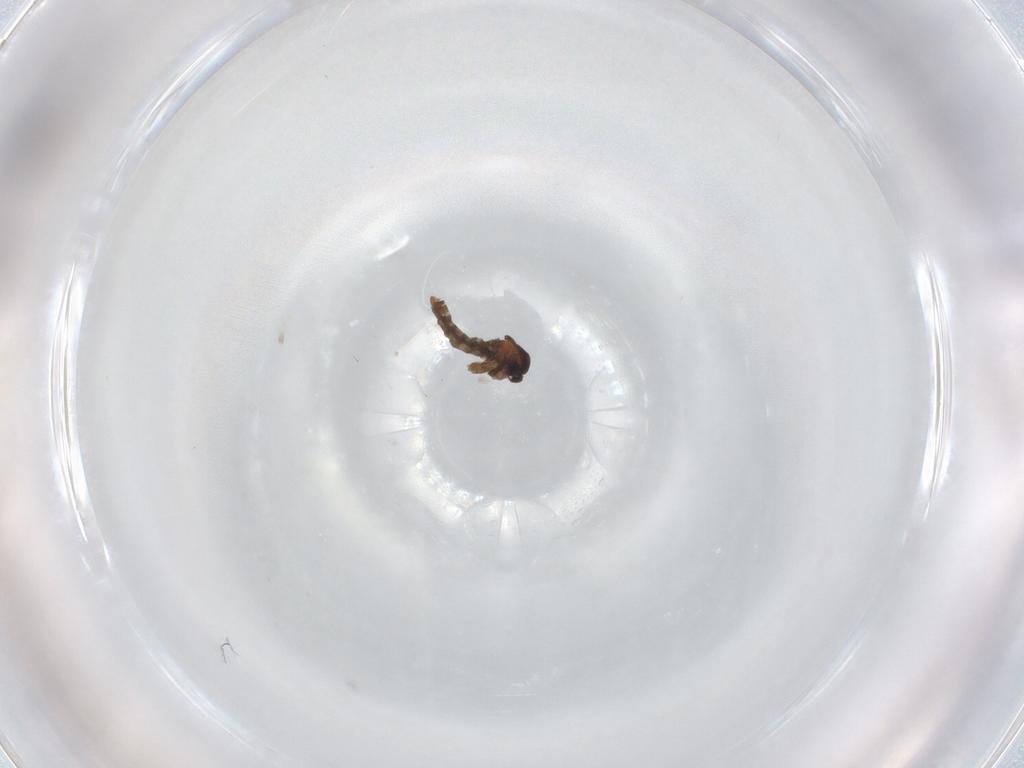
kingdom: Animalia
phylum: Arthropoda
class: Insecta
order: Diptera
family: Cecidomyiidae
